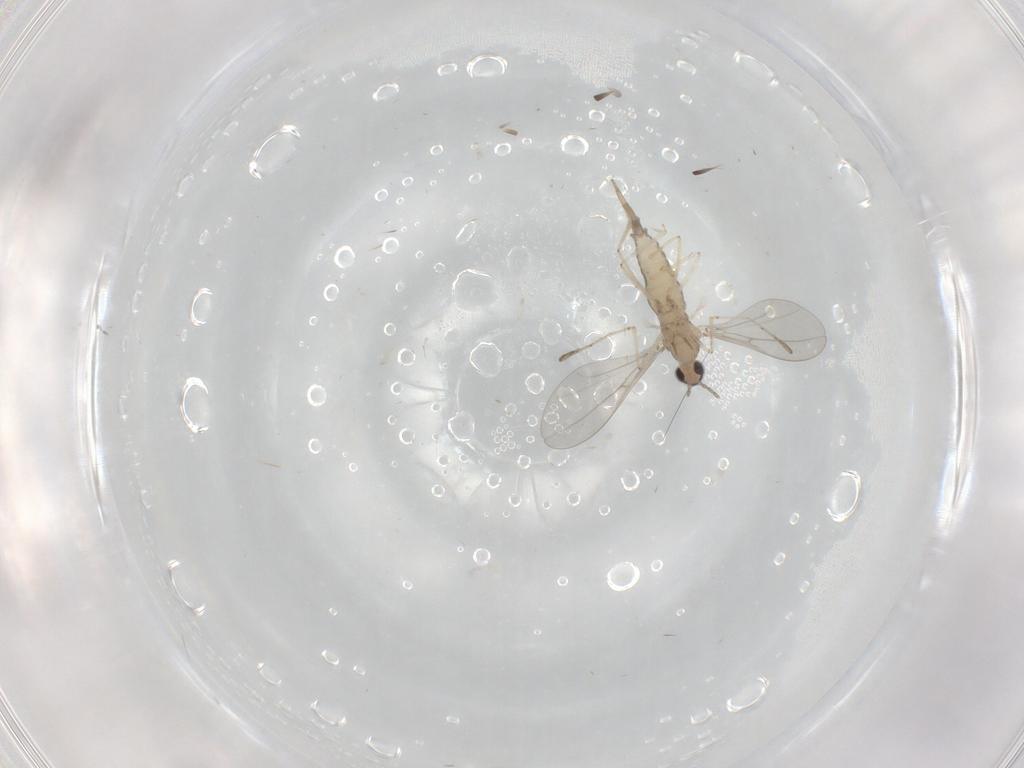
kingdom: Animalia
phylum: Arthropoda
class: Insecta
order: Diptera
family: Cecidomyiidae
